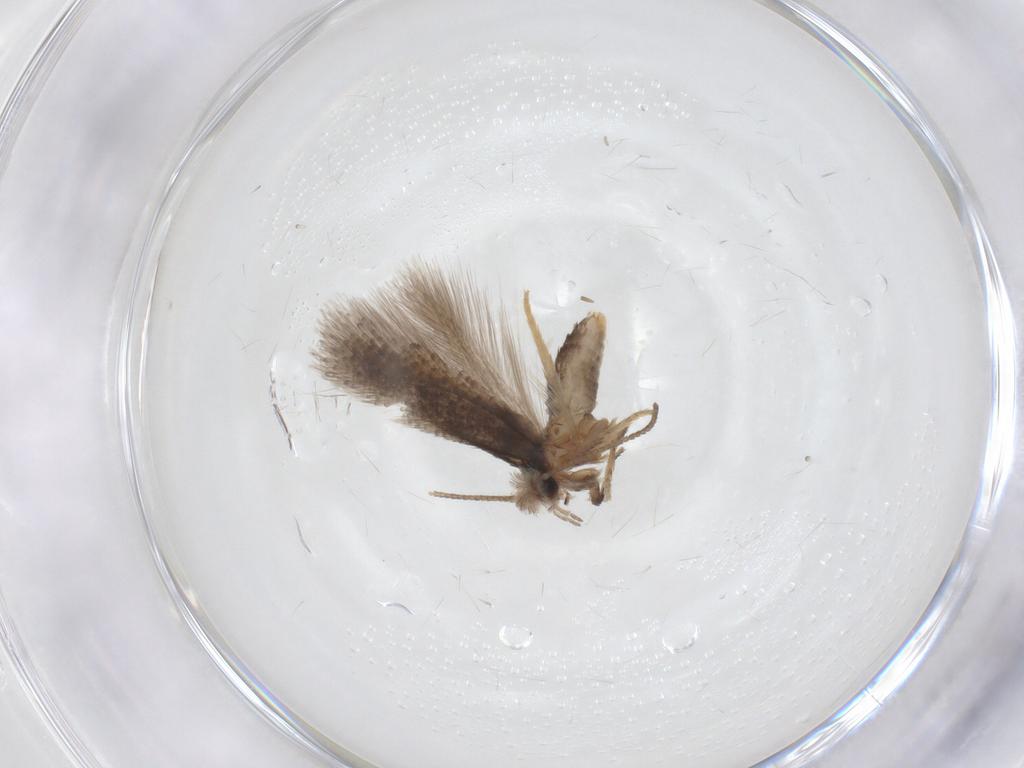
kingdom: Animalia
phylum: Arthropoda
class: Insecta
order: Lepidoptera
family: Nepticulidae
